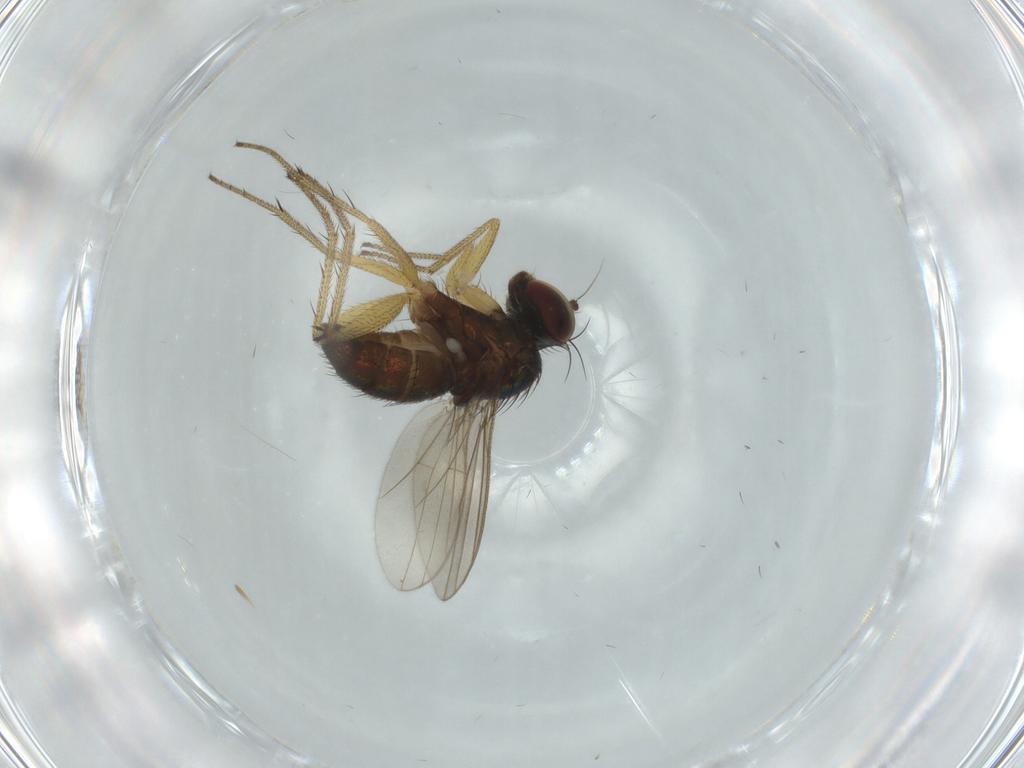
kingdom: Animalia
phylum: Arthropoda
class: Insecta
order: Diptera
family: Dolichopodidae
